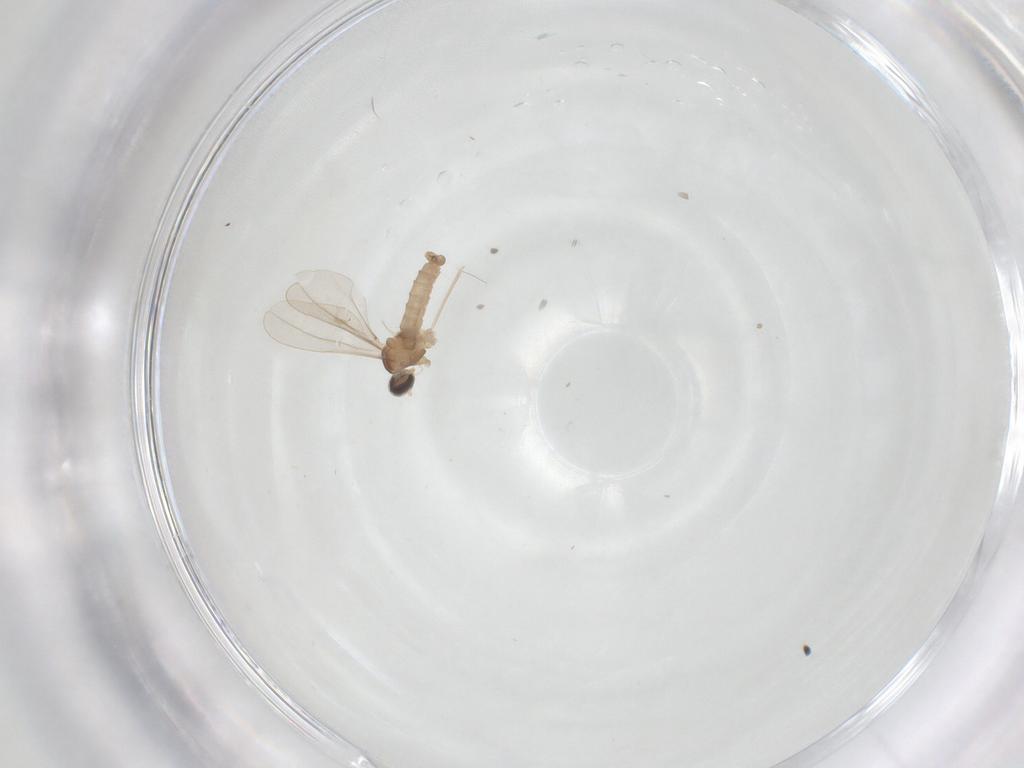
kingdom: Animalia
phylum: Arthropoda
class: Insecta
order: Diptera
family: Cecidomyiidae
